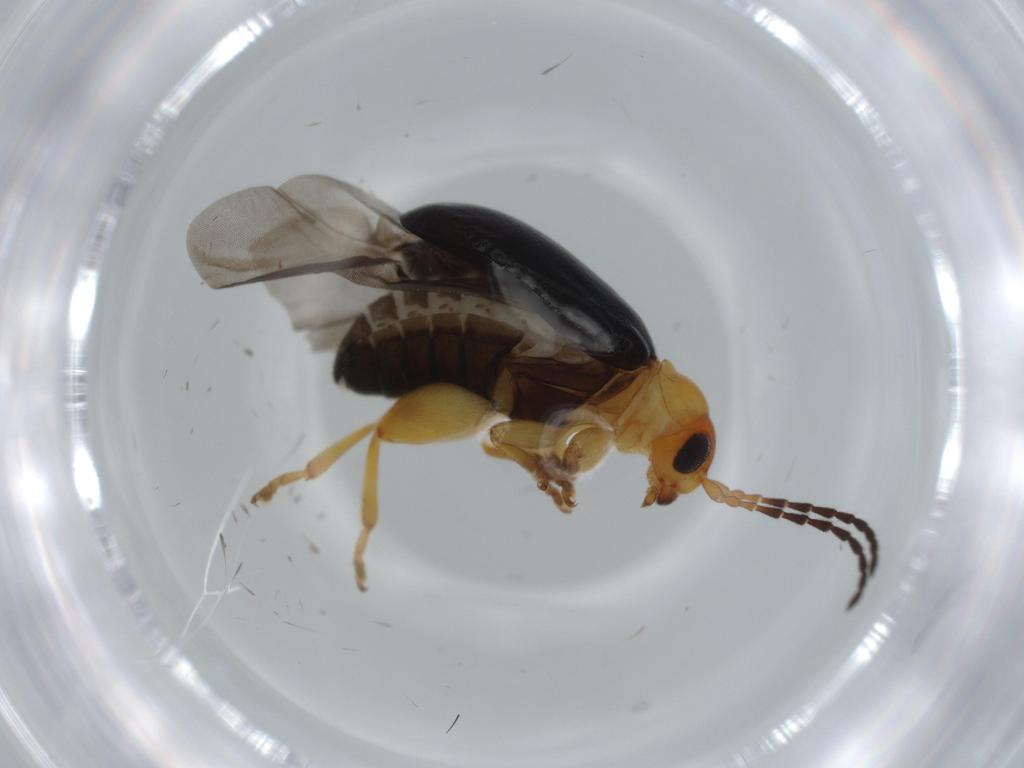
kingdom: Animalia
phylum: Arthropoda
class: Insecta
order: Coleoptera
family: Chrysomelidae
